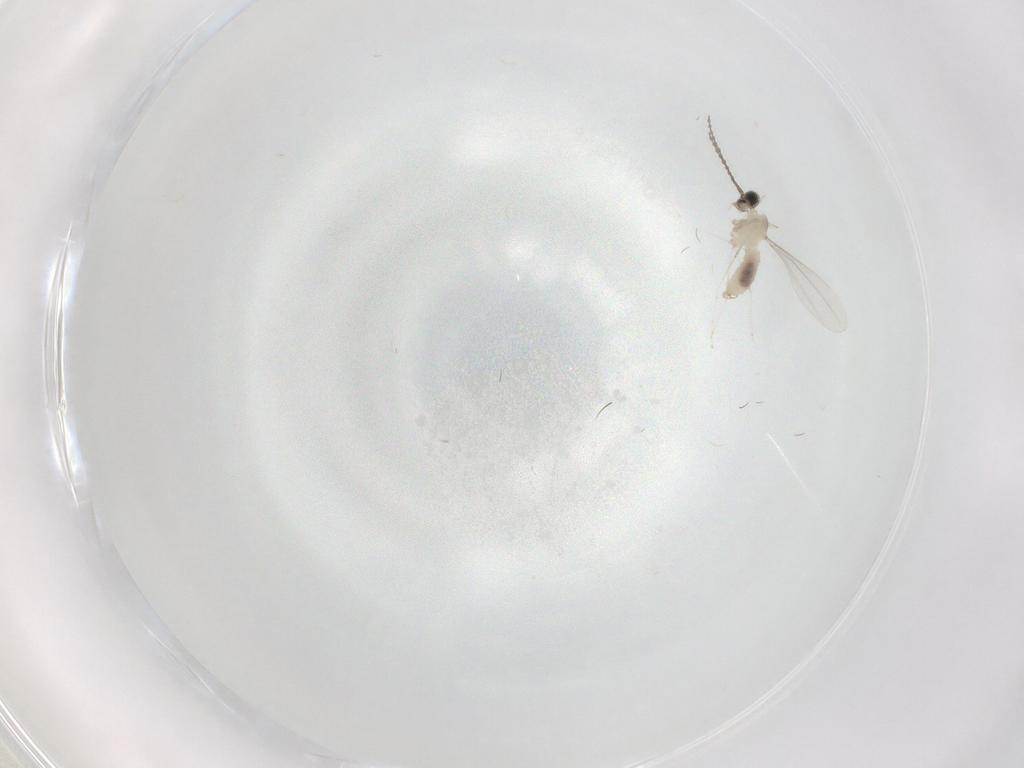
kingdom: Animalia
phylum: Arthropoda
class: Insecta
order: Diptera
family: Cecidomyiidae
